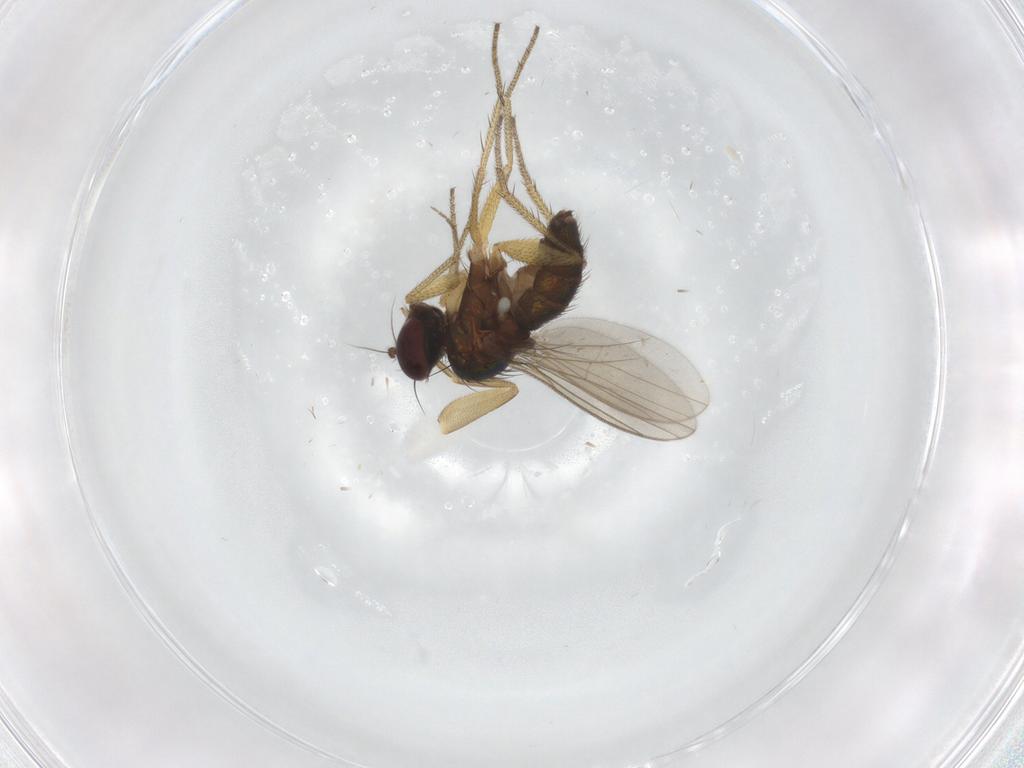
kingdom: Animalia
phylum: Arthropoda
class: Insecta
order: Diptera
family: Phoridae
